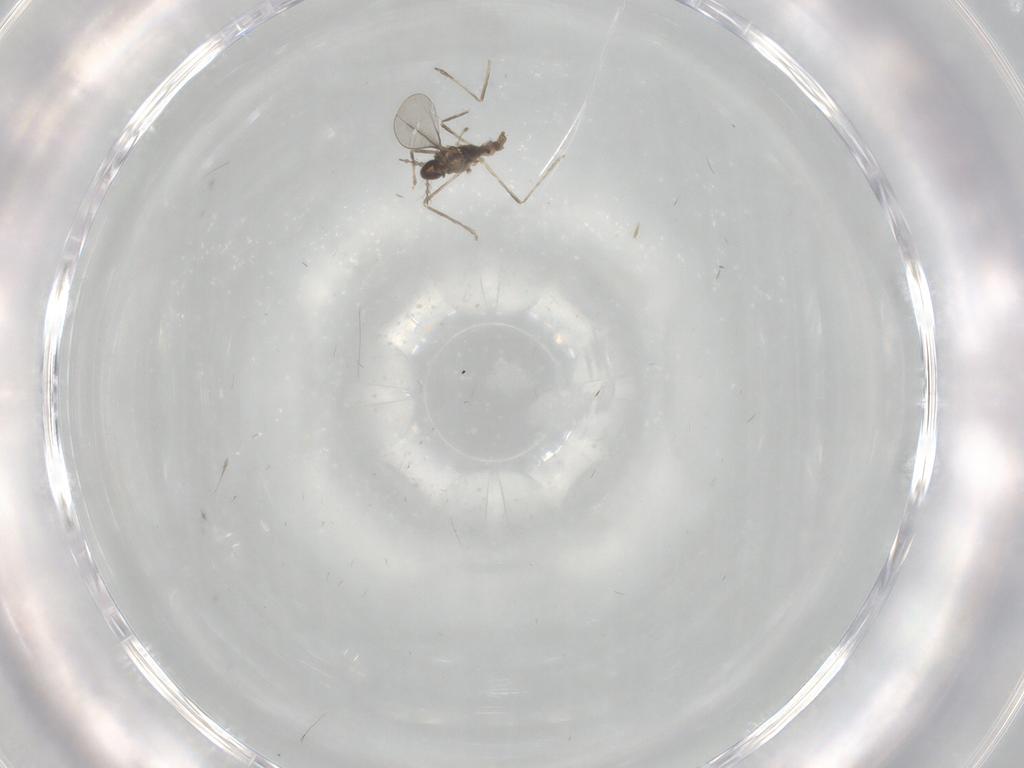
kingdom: Animalia
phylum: Arthropoda
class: Insecta
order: Diptera
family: Cecidomyiidae
